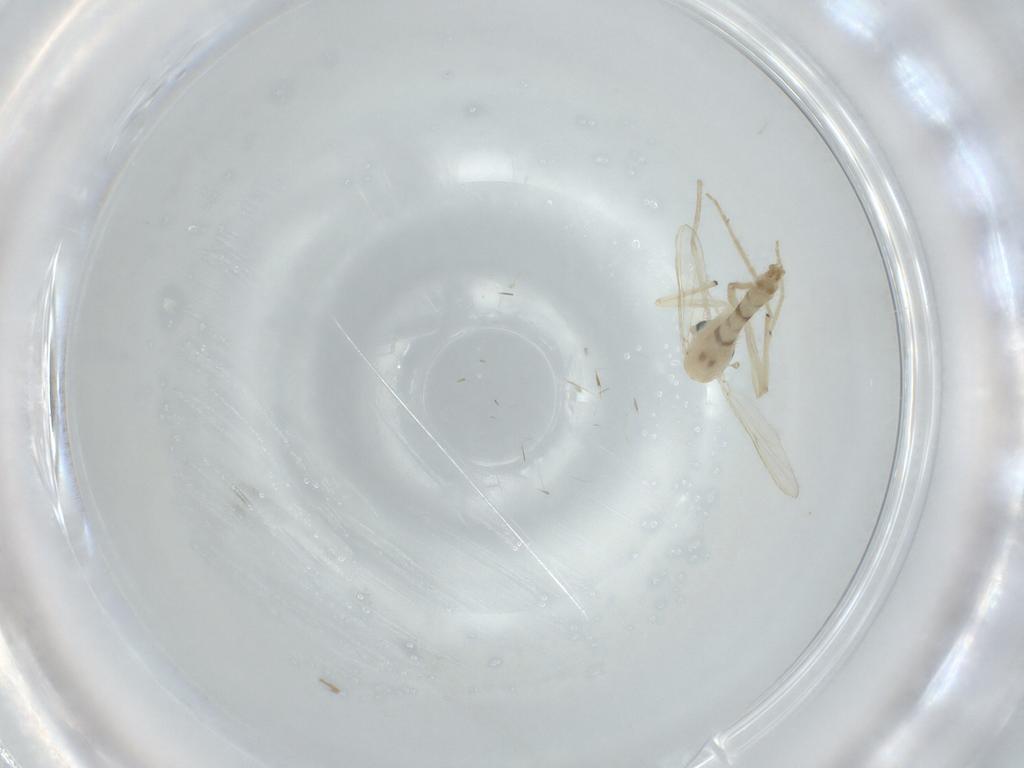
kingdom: Animalia
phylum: Arthropoda
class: Insecta
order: Diptera
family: Chironomidae
